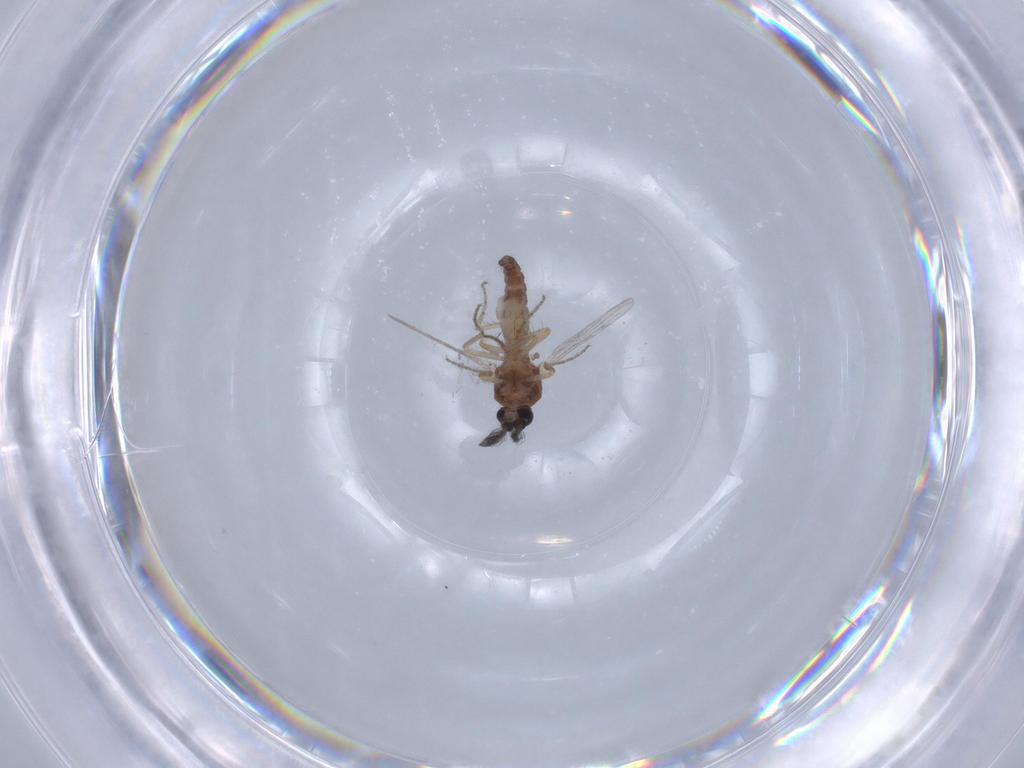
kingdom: Animalia
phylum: Arthropoda
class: Insecta
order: Diptera
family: Ceratopogonidae
